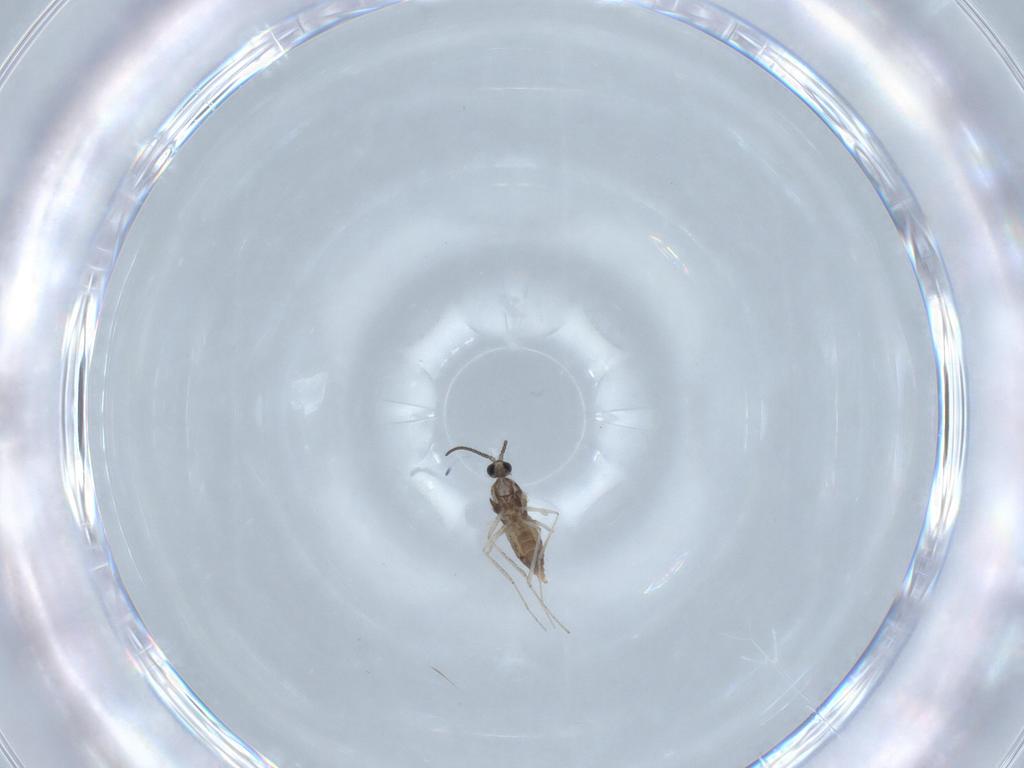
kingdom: Animalia
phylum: Arthropoda
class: Insecta
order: Diptera
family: Cecidomyiidae
